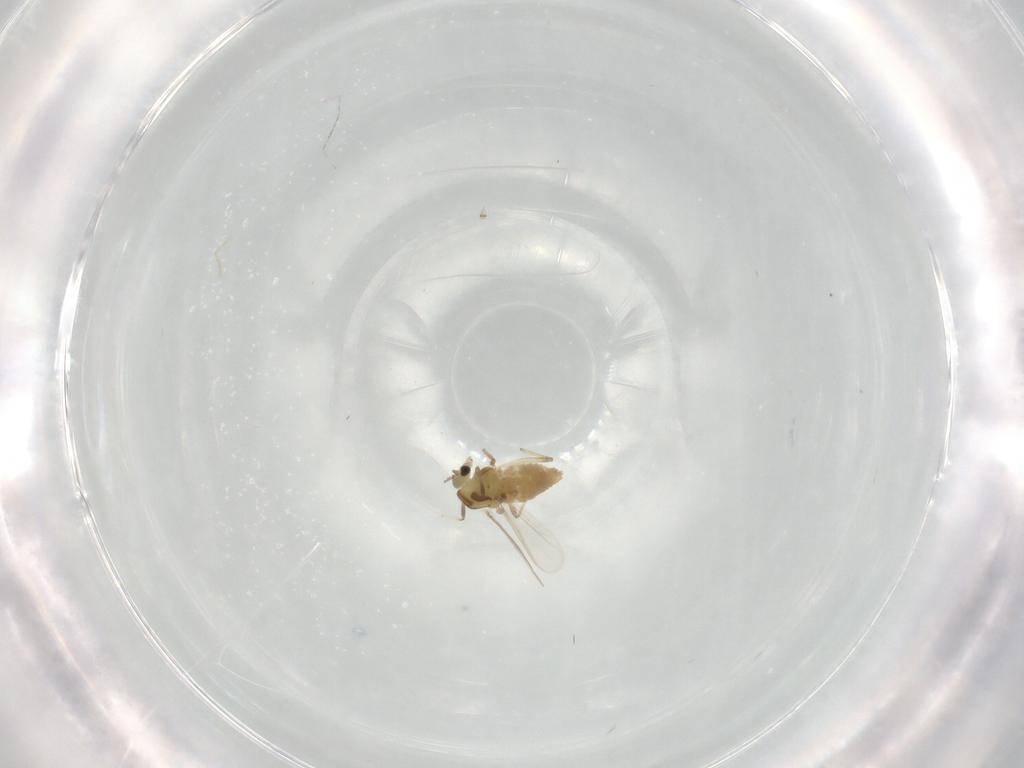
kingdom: Animalia
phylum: Arthropoda
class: Insecta
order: Diptera
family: Chironomidae
